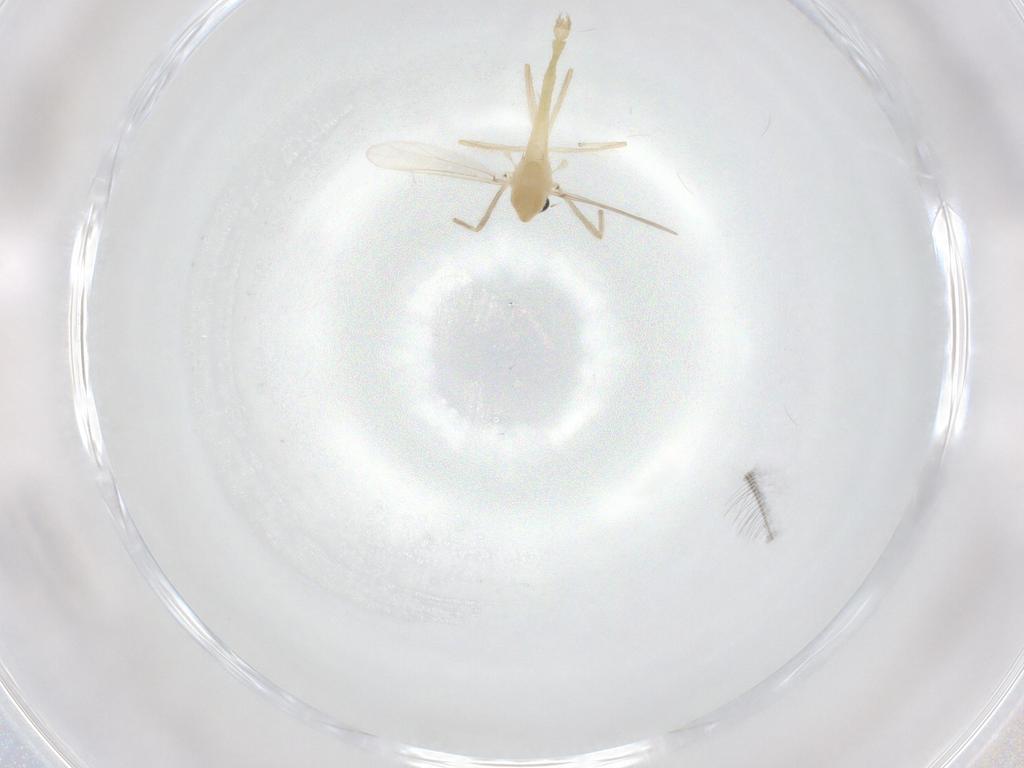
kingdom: Animalia
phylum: Arthropoda
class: Insecta
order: Diptera
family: Chironomidae
